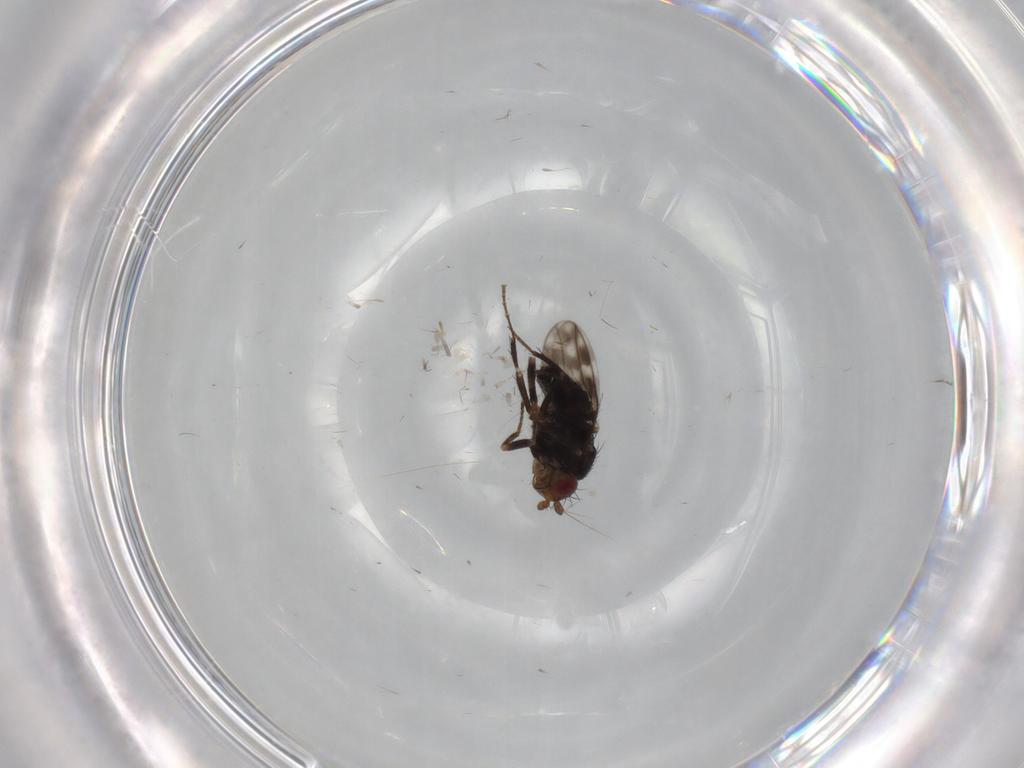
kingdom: Animalia
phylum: Arthropoda
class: Insecta
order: Diptera
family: Sphaeroceridae
